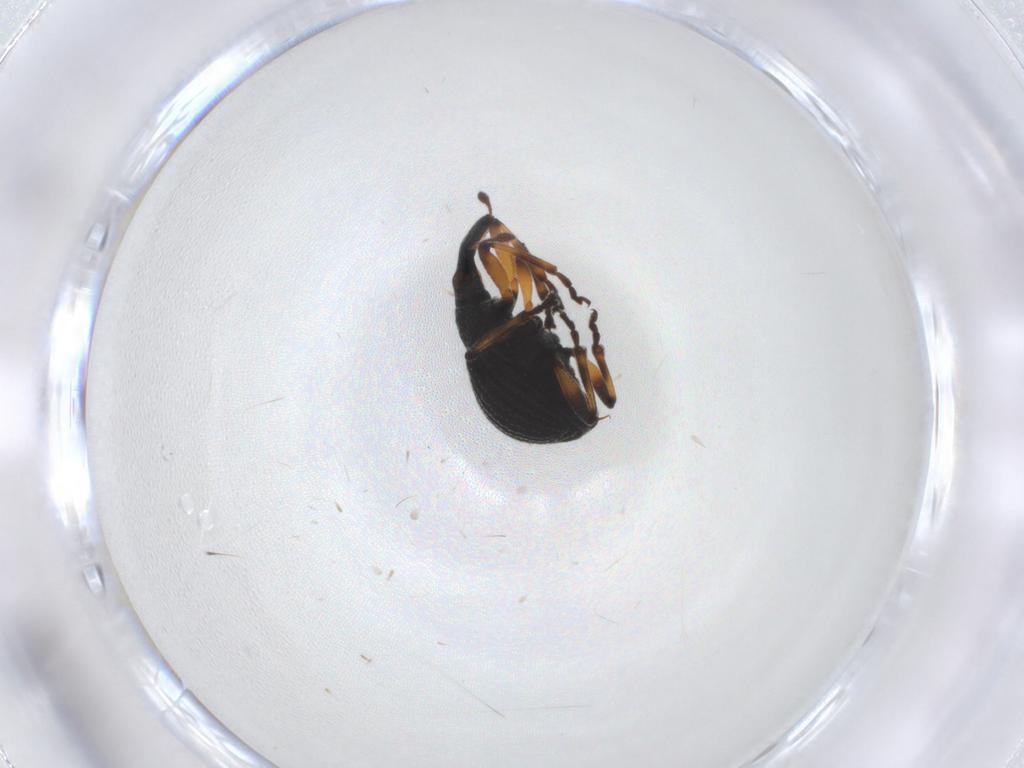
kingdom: Animalia
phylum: Arthropoda
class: Insecta
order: Coleoptera
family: Brentidae
